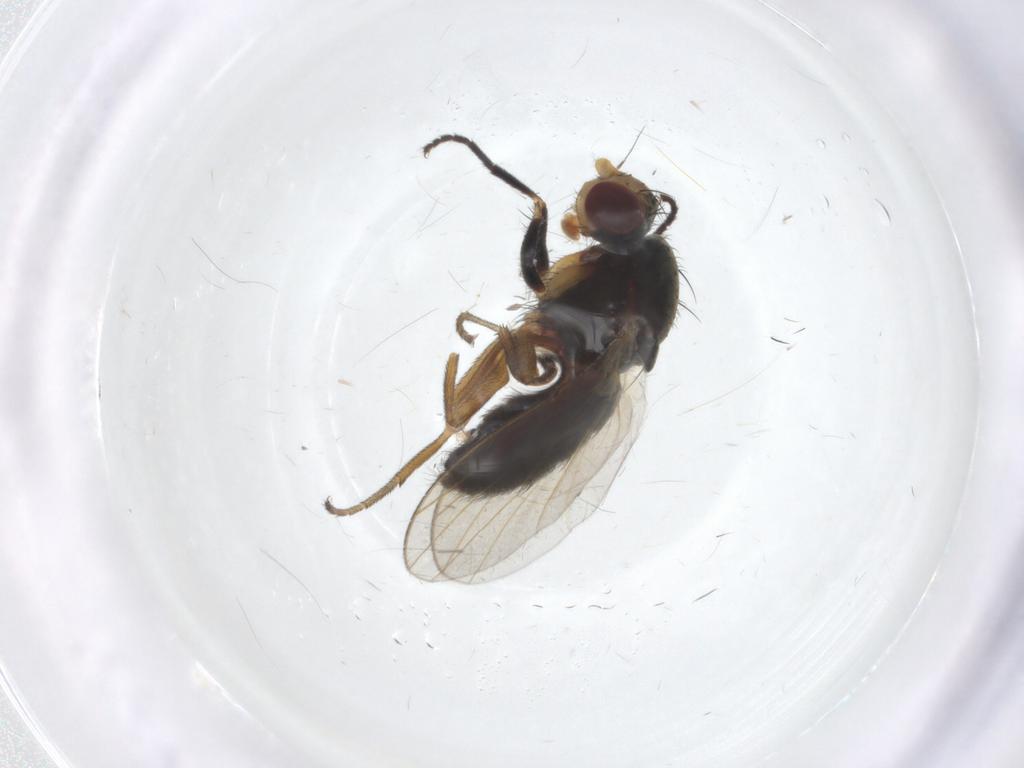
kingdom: Animalia
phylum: Arthropoda
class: Insecta
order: Diptera
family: Heleomyzidae
